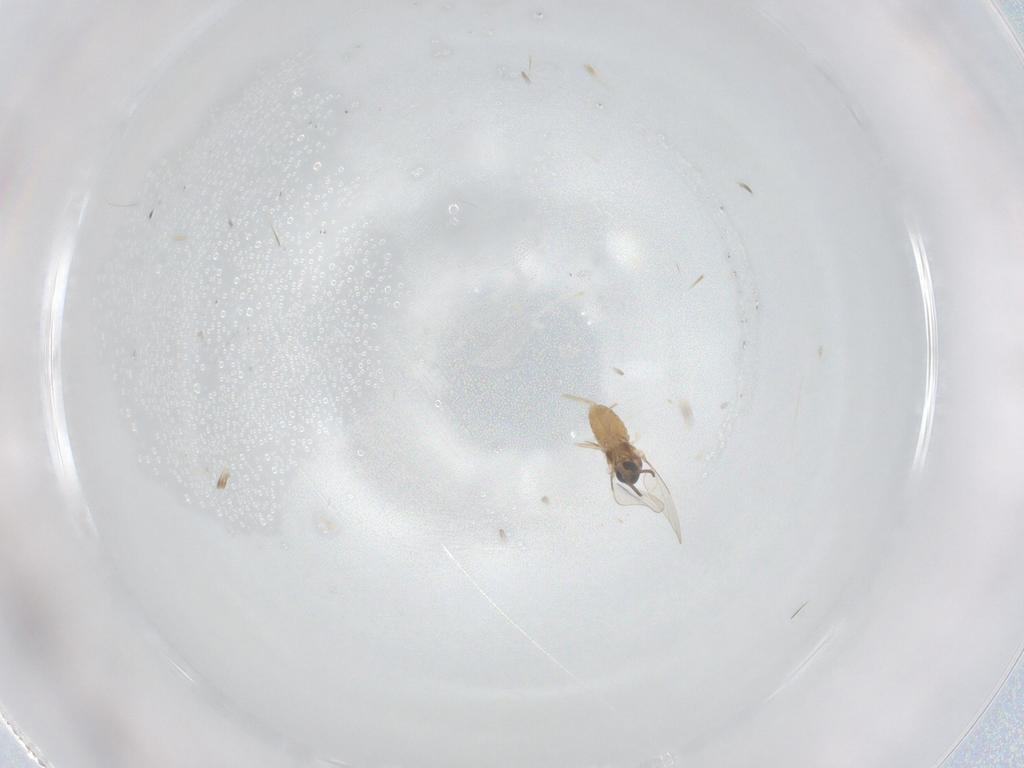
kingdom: Animalia
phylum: Arthropoda
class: Insecta
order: Diptera
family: Cecidomyiidae
